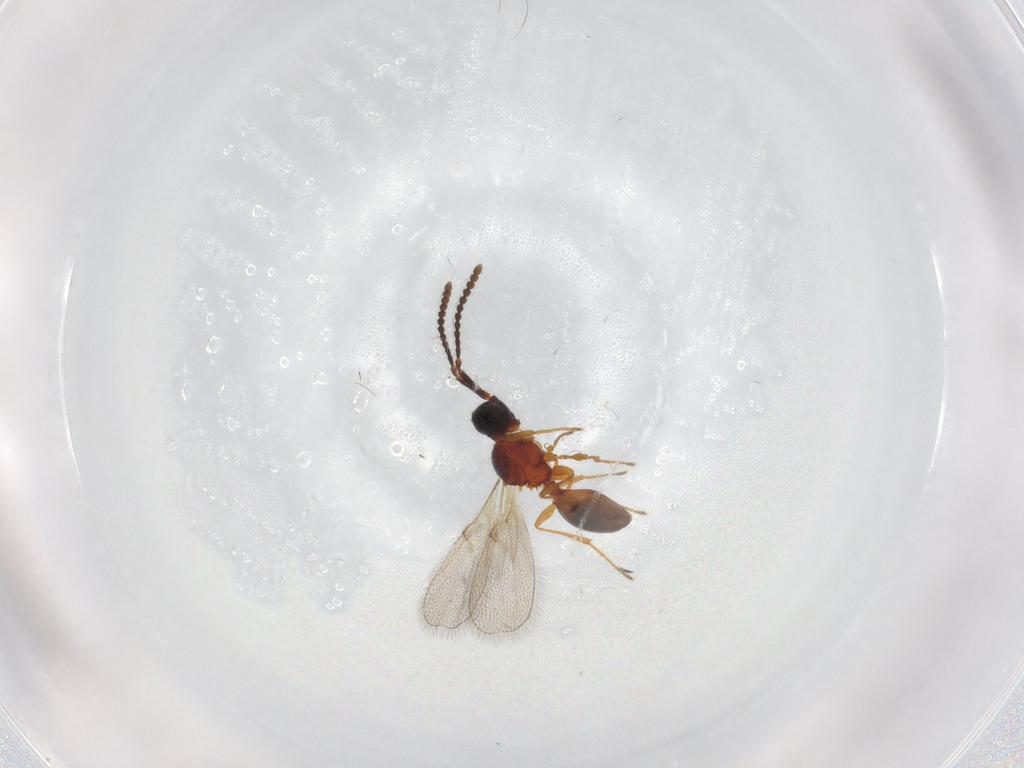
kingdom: Animalia
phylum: Arthropoda
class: Insecta
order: Hymenoptera
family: Diapriidae
